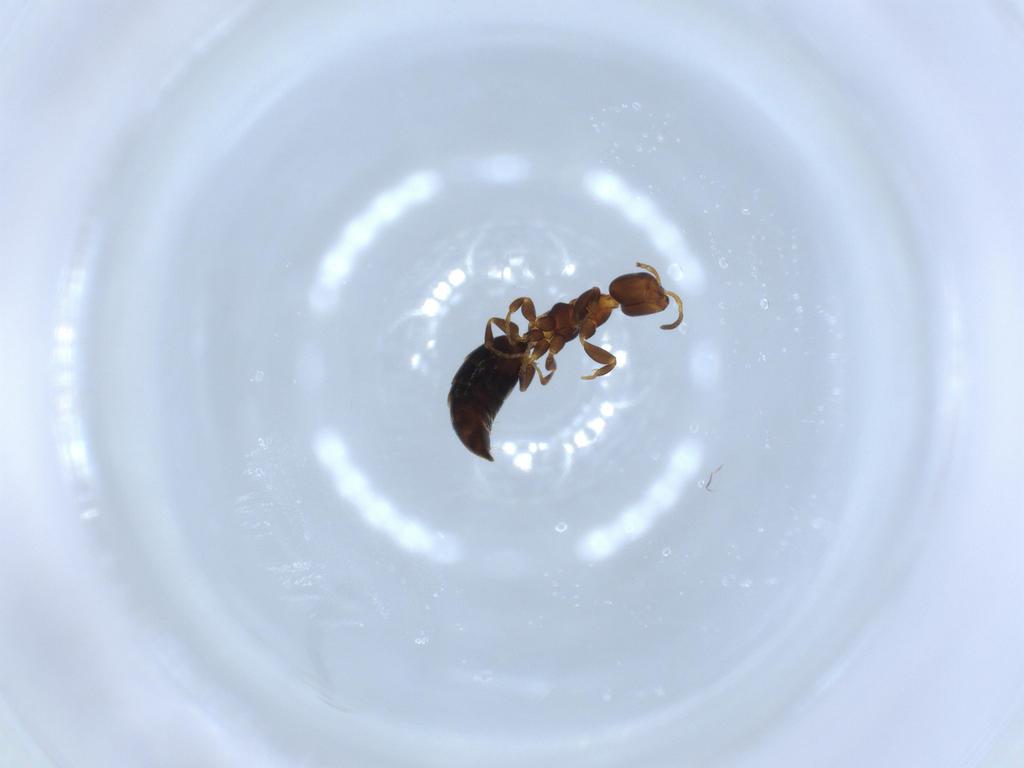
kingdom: Animalia
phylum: Arthropoda
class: Insecta
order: Hymenoptera
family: Bethylidae
